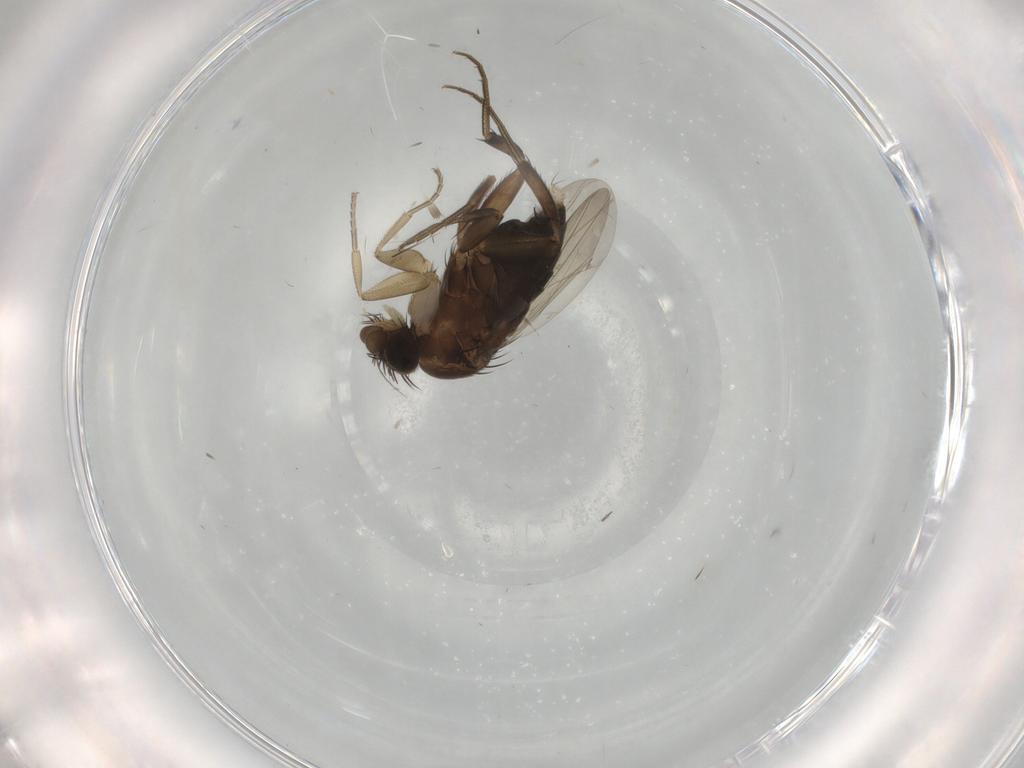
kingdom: Animalia
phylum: Arthropoda
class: Insecta
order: Diptera
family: Phoridae
